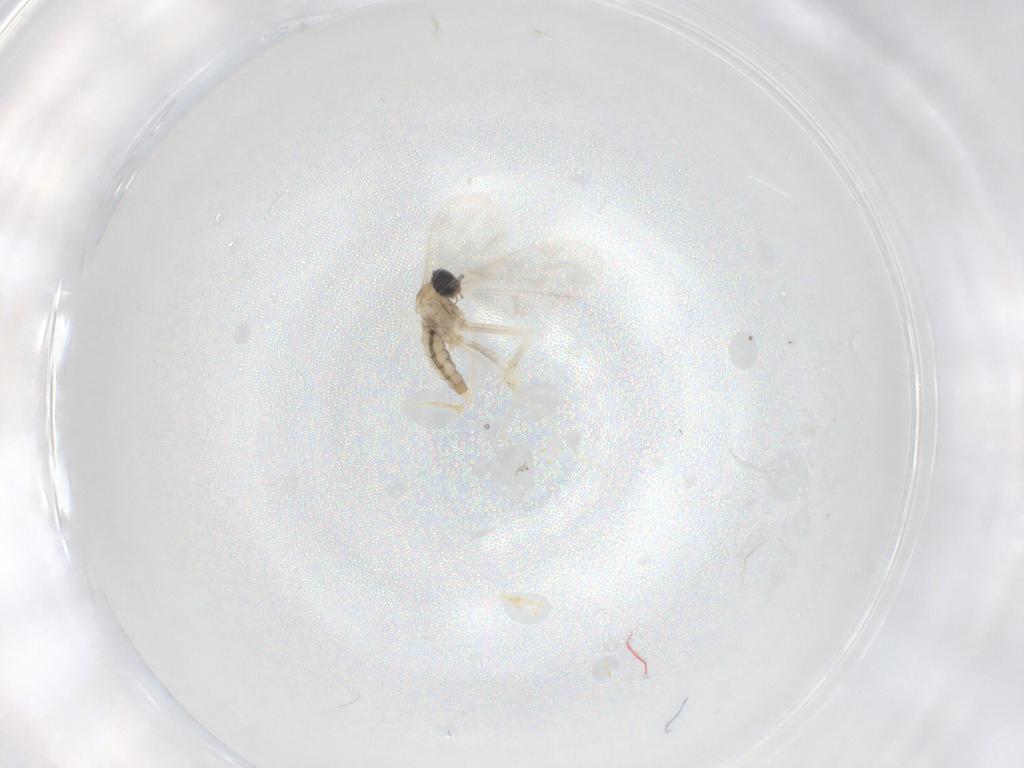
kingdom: Animalia
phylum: Arthropoda
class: Insecta
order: Diptera
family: Cecidomyiidae
